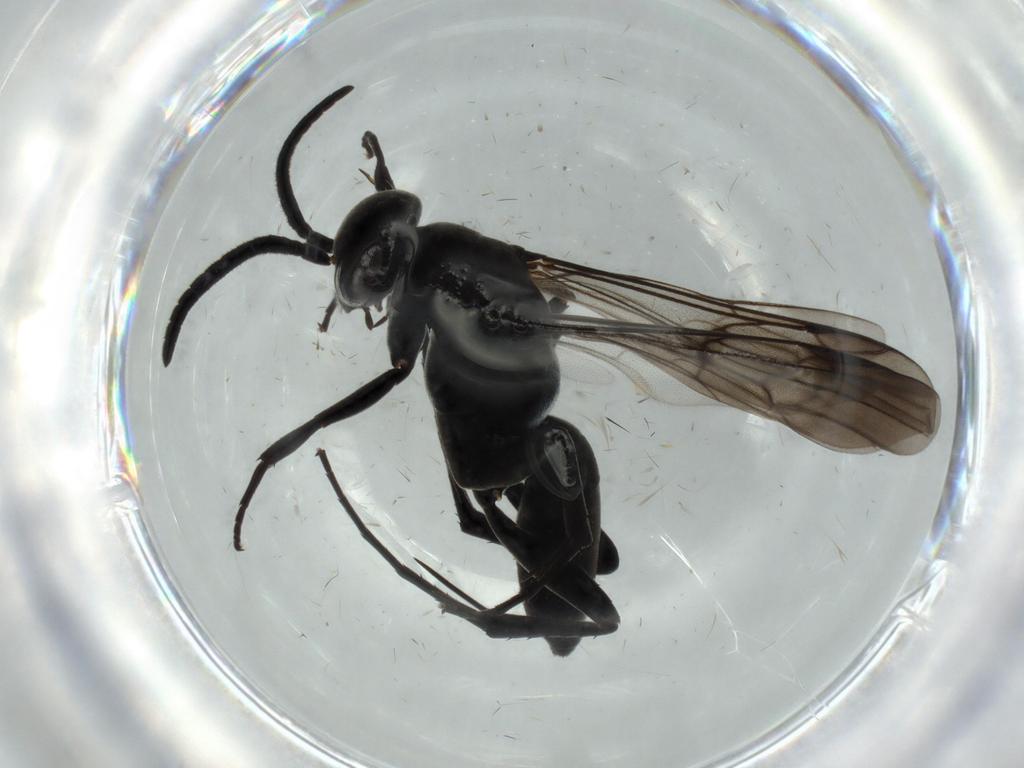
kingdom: Animalia
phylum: Arthropoda
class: Insecta
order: Hymenoptera
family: Pompilidae
